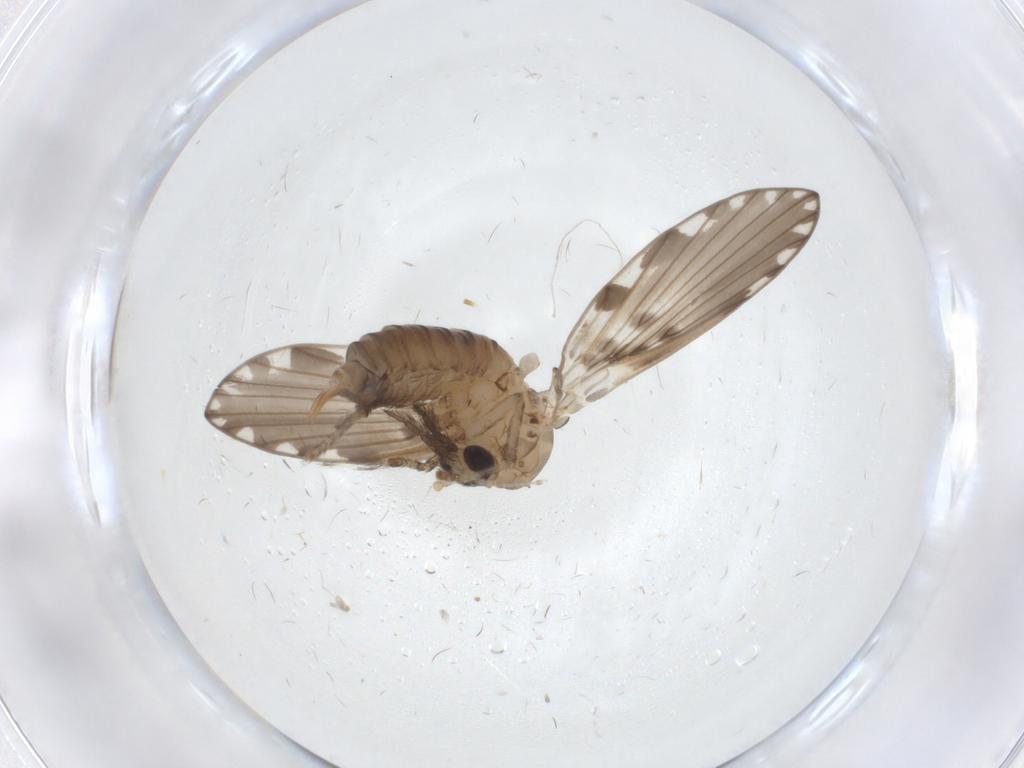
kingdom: Animalia
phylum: Arthropoda
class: Insecta
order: Diptera
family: Psychodidae
